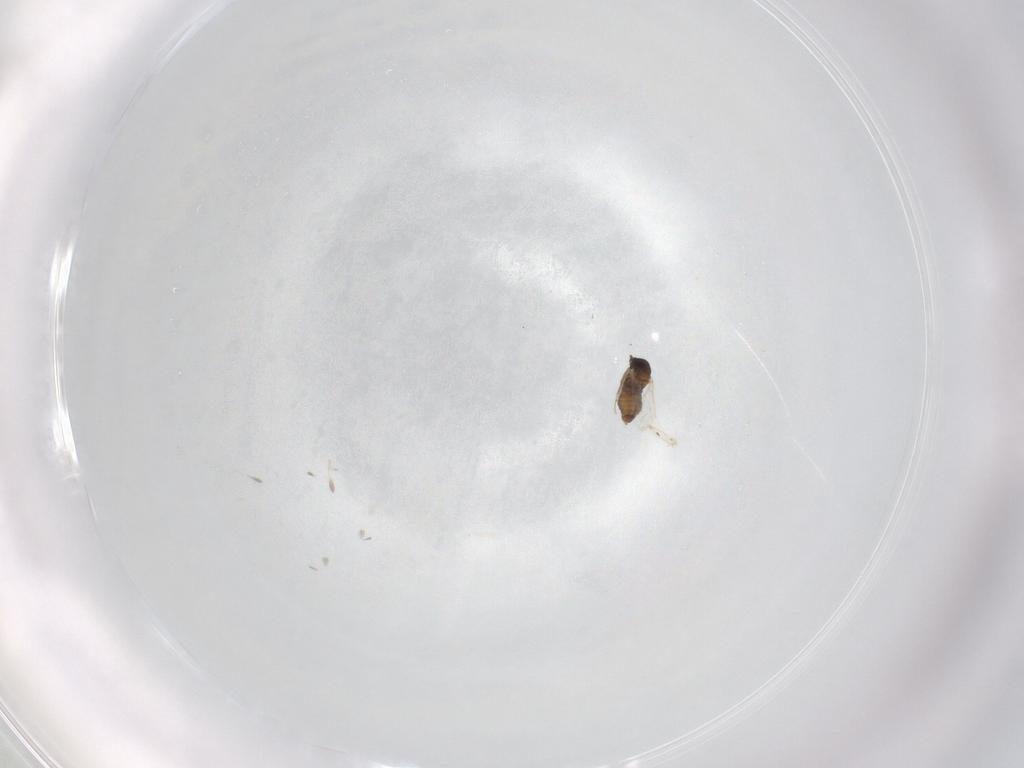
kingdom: Animalia
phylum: Arthropoda
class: Insecta
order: Diptera
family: Cecidomyiidae
